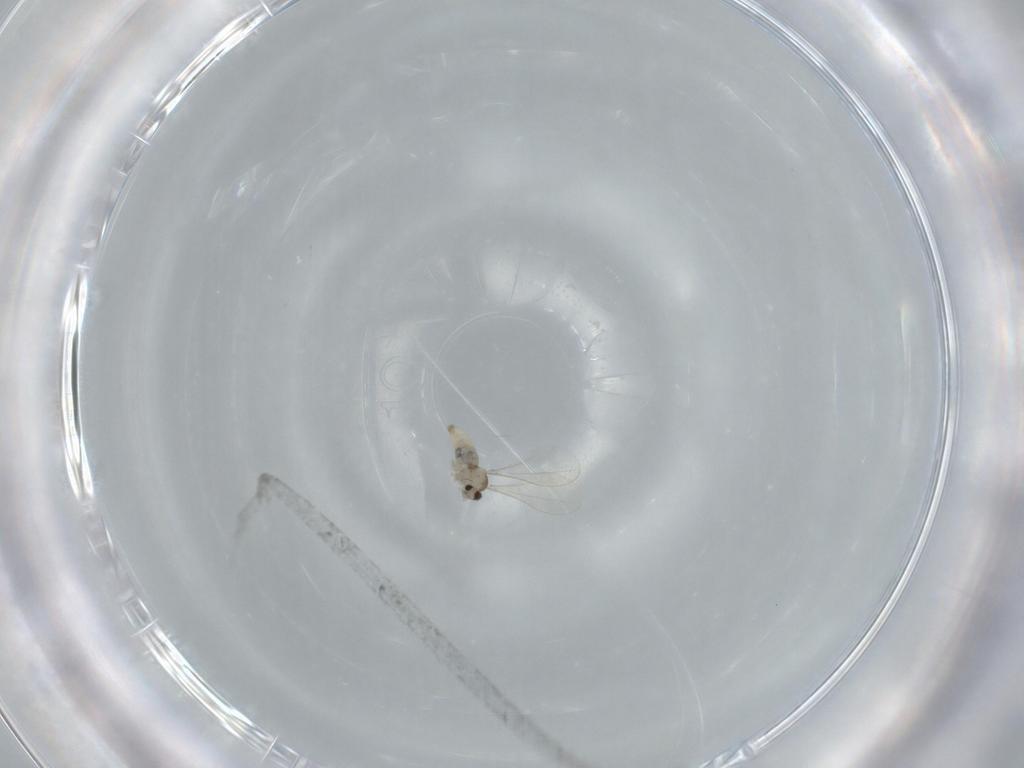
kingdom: Animalia
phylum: Arthropoda
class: Insecta
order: Diptera
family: Cecidomyiidae
